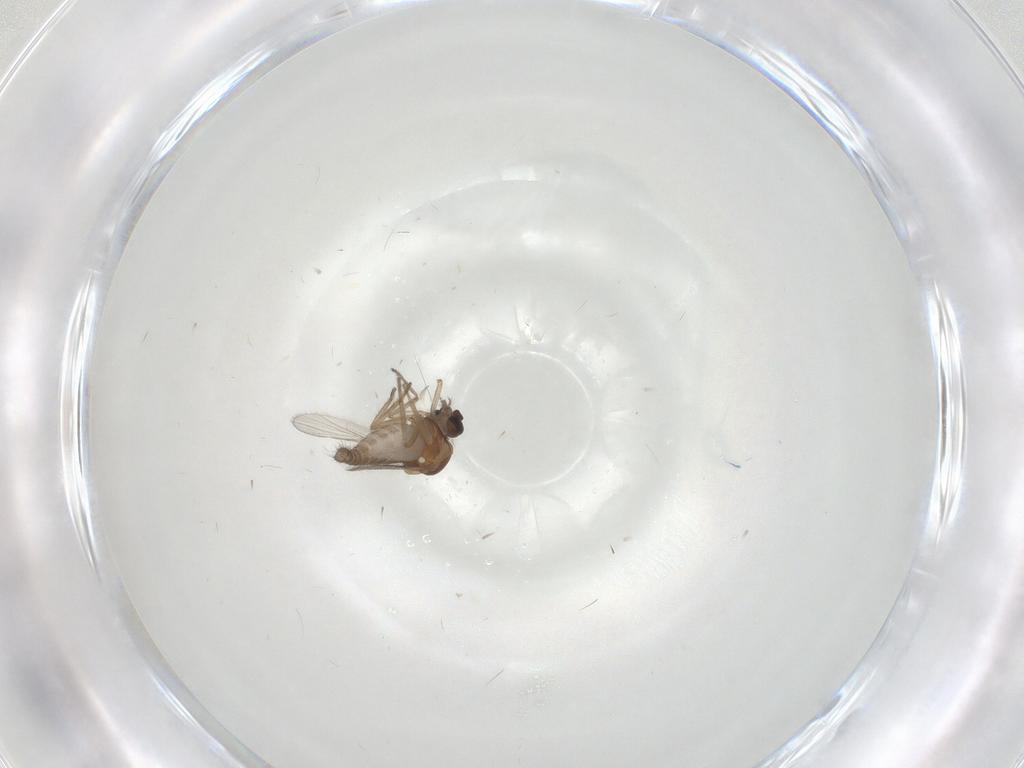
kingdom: Animalia
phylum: Arthropoda
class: Insecta
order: Diptera
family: Ceratopogonidae
